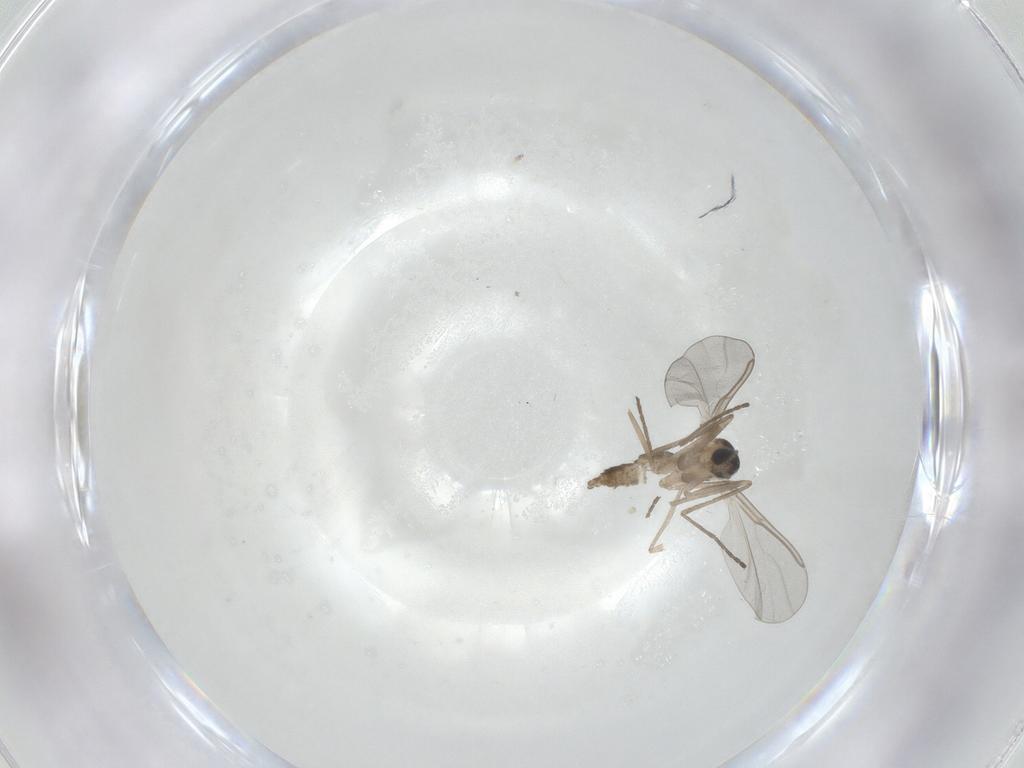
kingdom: Animalia
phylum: Arthropoda
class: Insecta
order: Diptera
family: Cecidomyiidae
